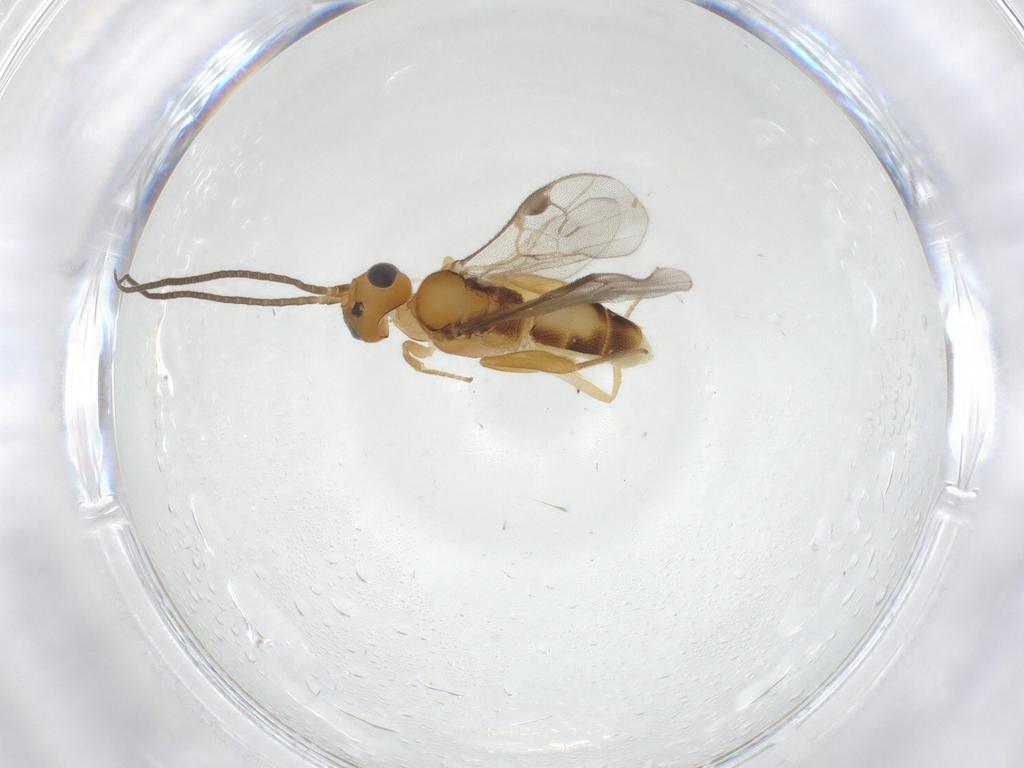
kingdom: Animalia
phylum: Arthropoda
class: Insecta
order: Hymenoptera
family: Braconidae
